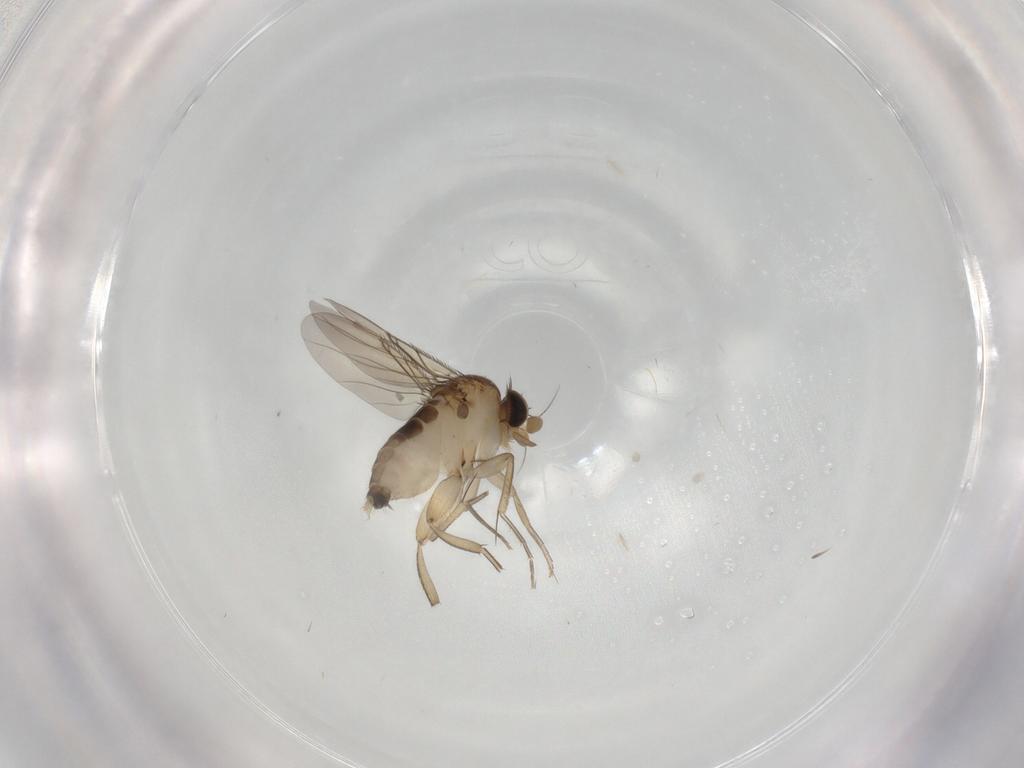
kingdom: Animalia
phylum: Arthropoda
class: Insecta
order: Diptera
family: Phoridae
